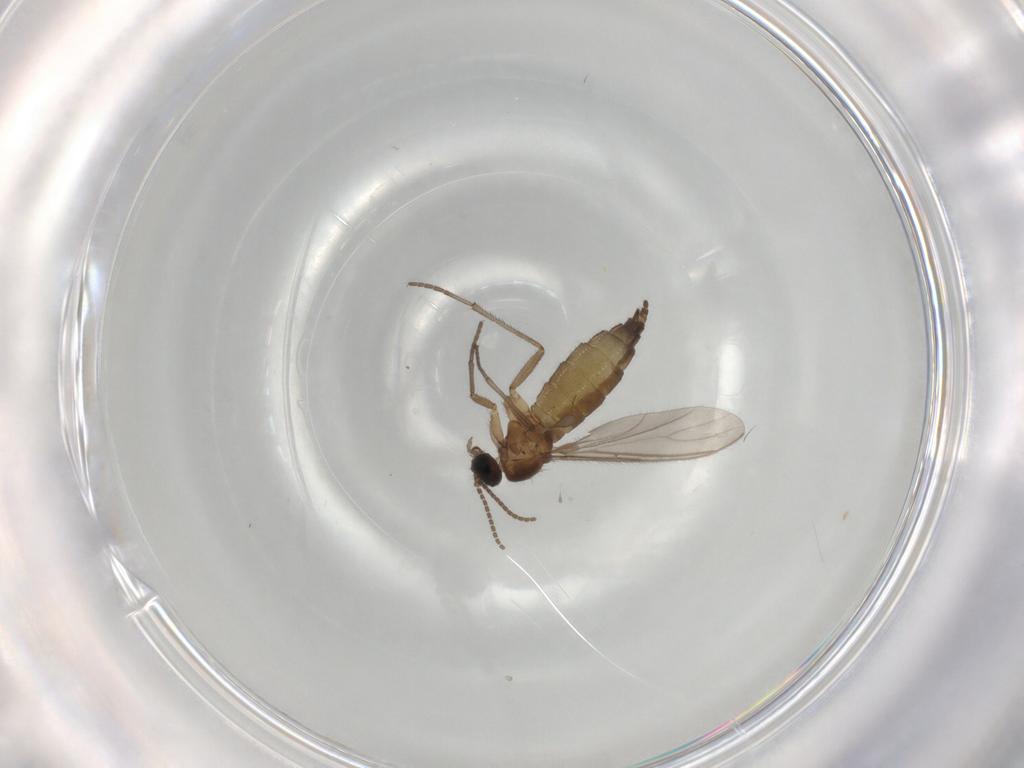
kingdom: Animalia
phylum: Arthropoda
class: Insecta
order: Diptera
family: Sciaridae
